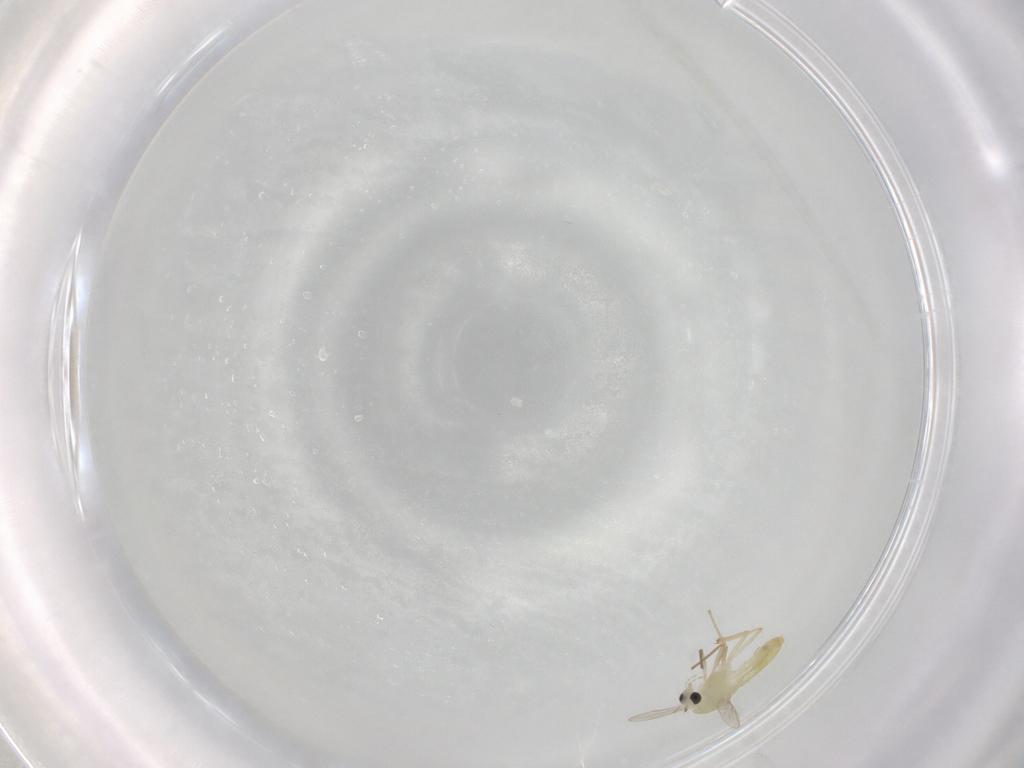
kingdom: Animalia
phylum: Arthropoda
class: Insecta
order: Diptera
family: Chironomidae
